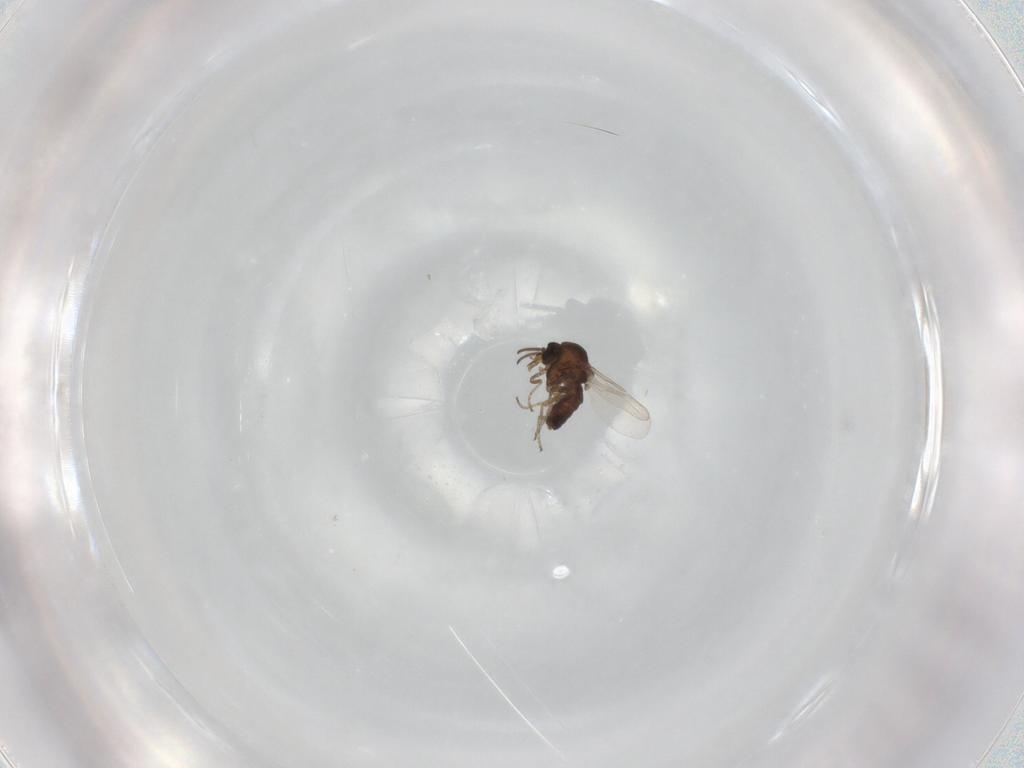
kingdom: Animalia
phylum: Arthropoda
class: Insecta
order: Diptera
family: Ceratopogonidae
